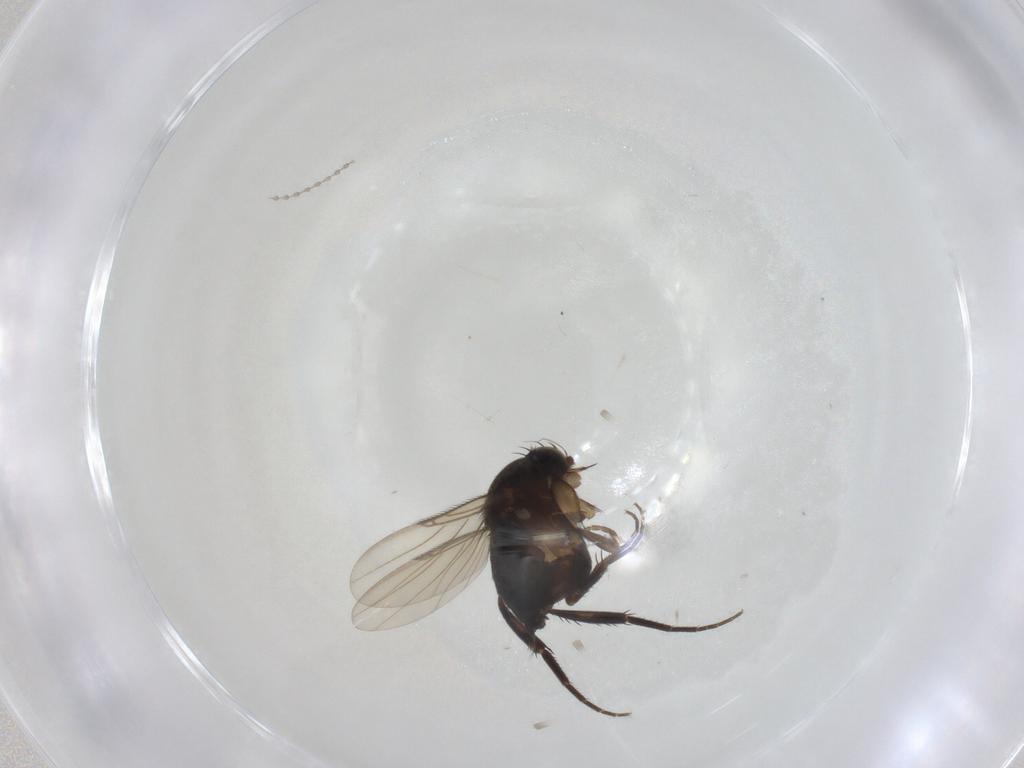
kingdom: Animalia
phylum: Arthropoda
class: Insecta
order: Diptera
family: Phoridae
